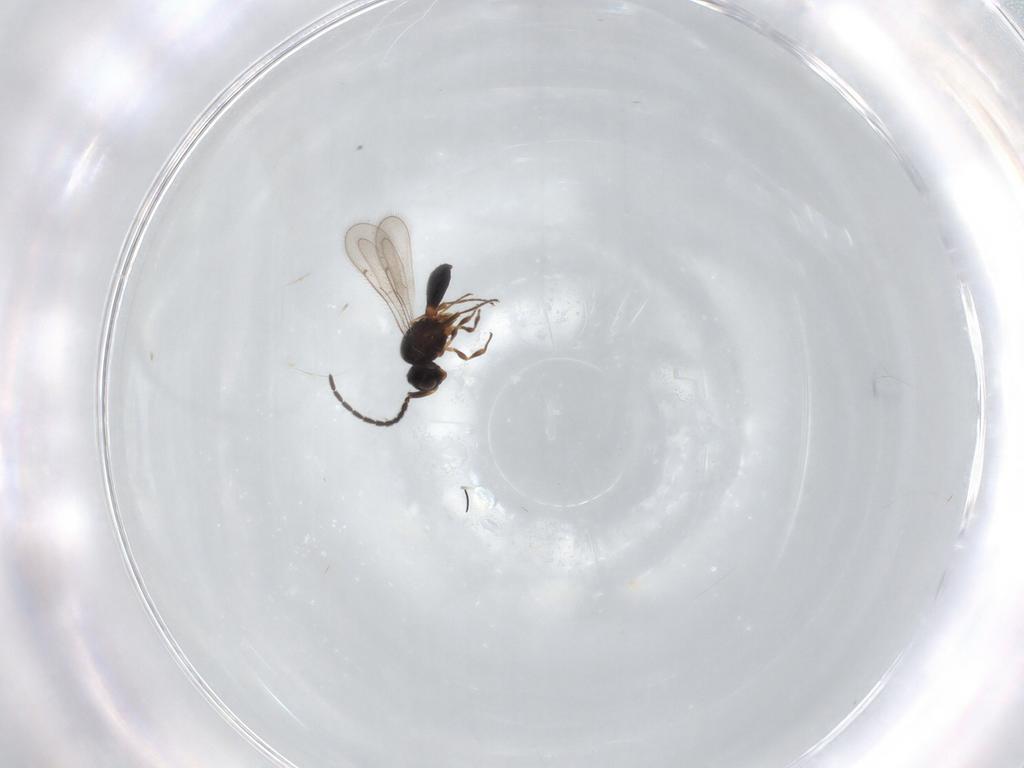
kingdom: Animalia
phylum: Arthropoda
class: Insecta
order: Hymenoptera
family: Scelionidae
